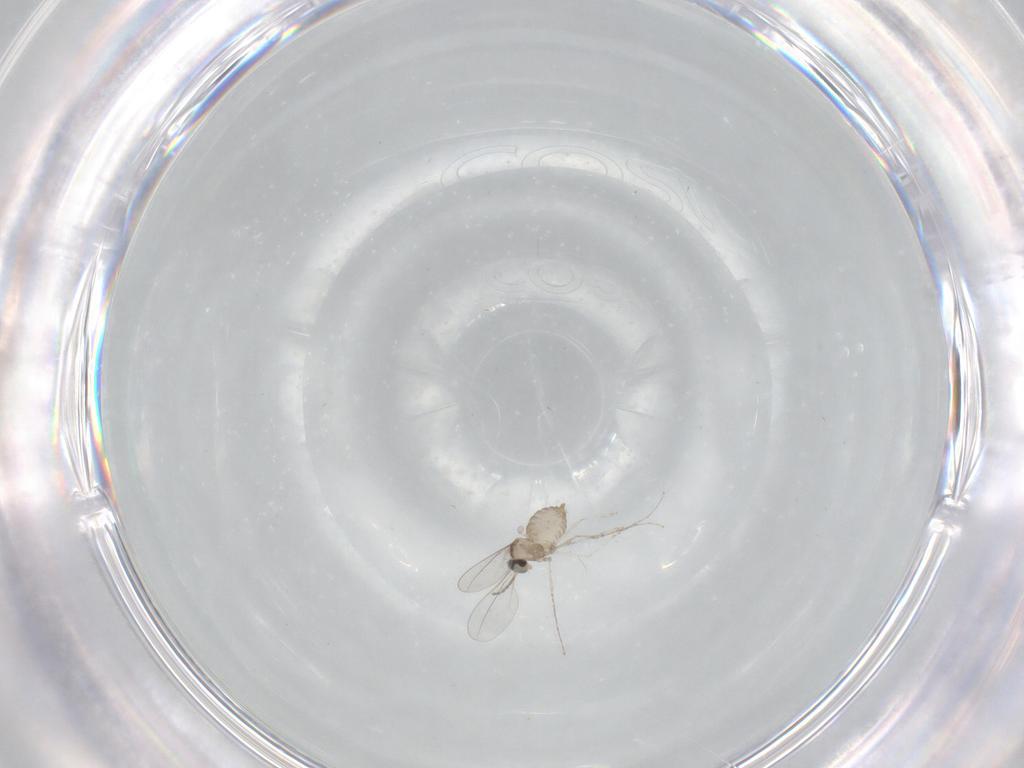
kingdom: Animalia
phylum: Arthropoda
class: Insecta
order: Diptera
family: Cecidomyiidae
